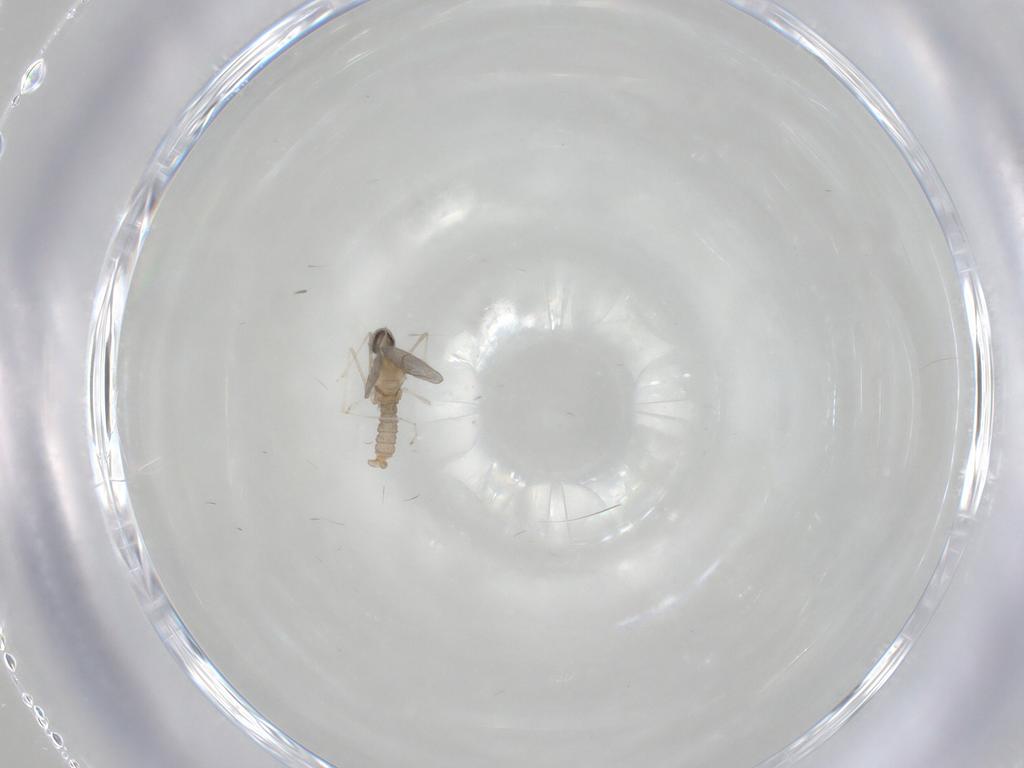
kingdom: Animalia
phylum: Arthropoda
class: Insecta
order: Diptera
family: Cecidomyiidae
